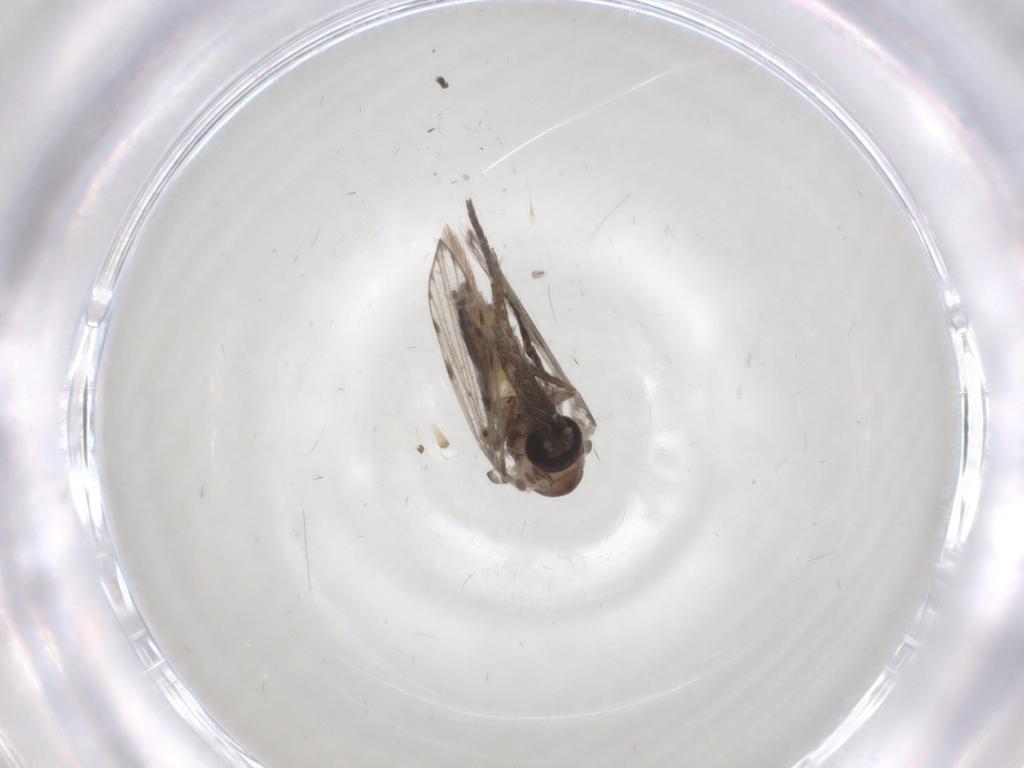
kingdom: Animalia
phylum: Arthropoda
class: Insecta
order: Diptera
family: Psychodidae
